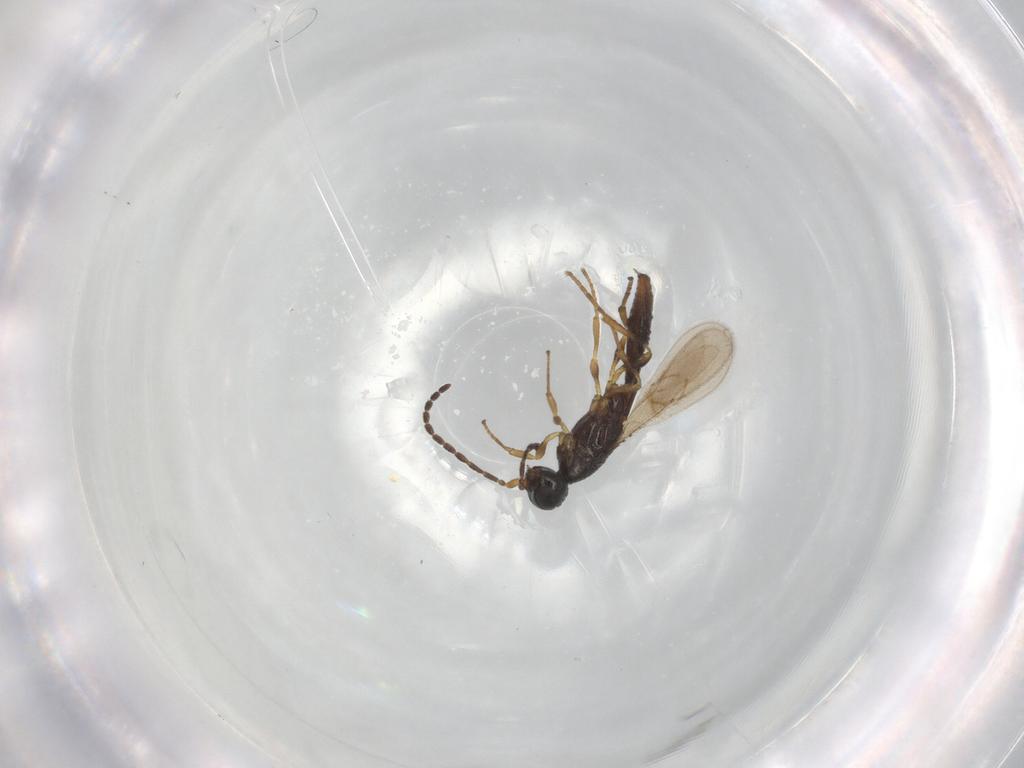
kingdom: Animalia
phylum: Arthropoda
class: Insecta
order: Hymenoptera
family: Scelionidae
